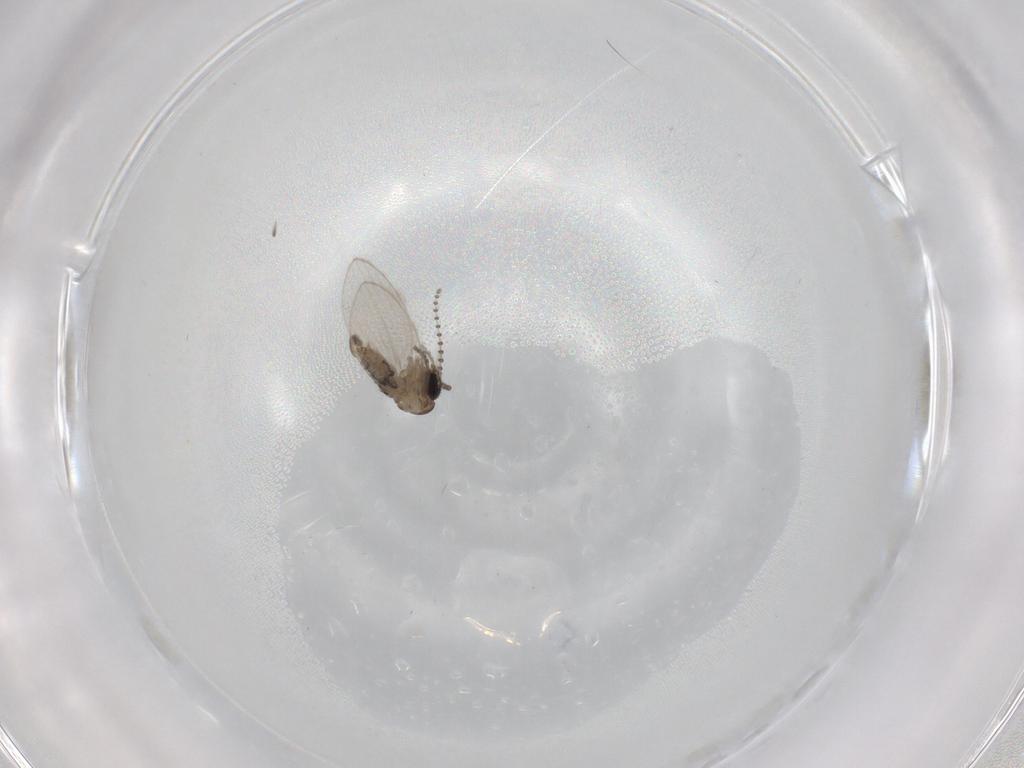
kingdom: Animalia
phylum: Arthropoda
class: Insecta
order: Diptera
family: Psychodidae
